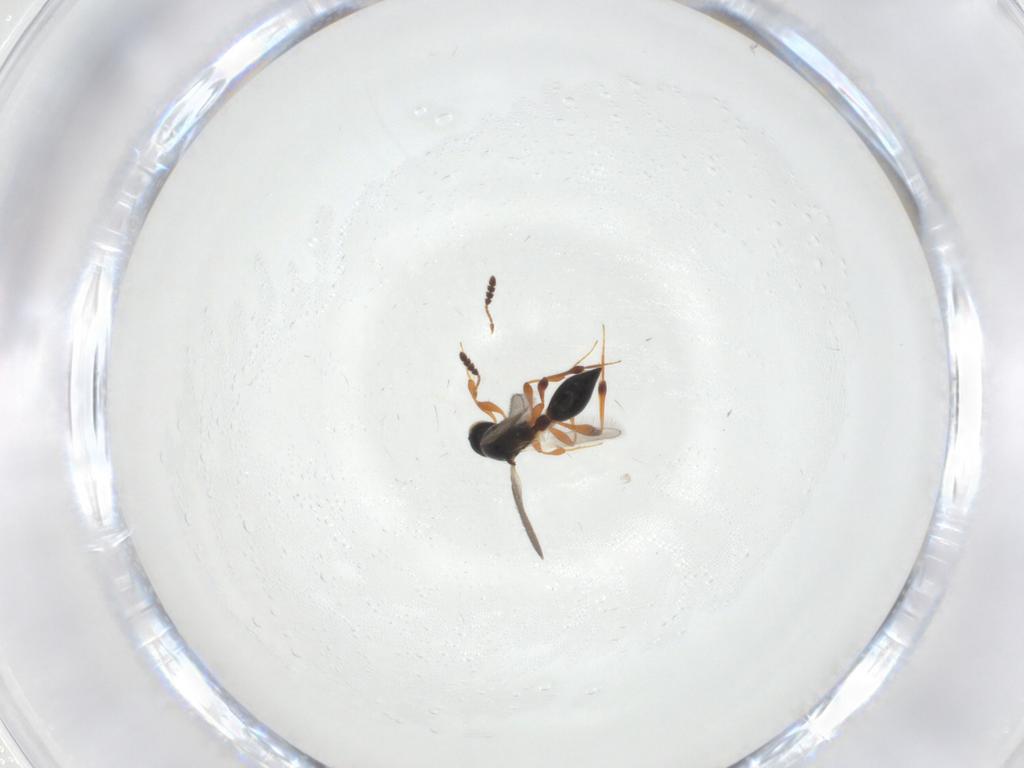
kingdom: Animalia
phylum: Arthropoda
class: Insecta
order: Hymenoptera
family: Platygastridae
